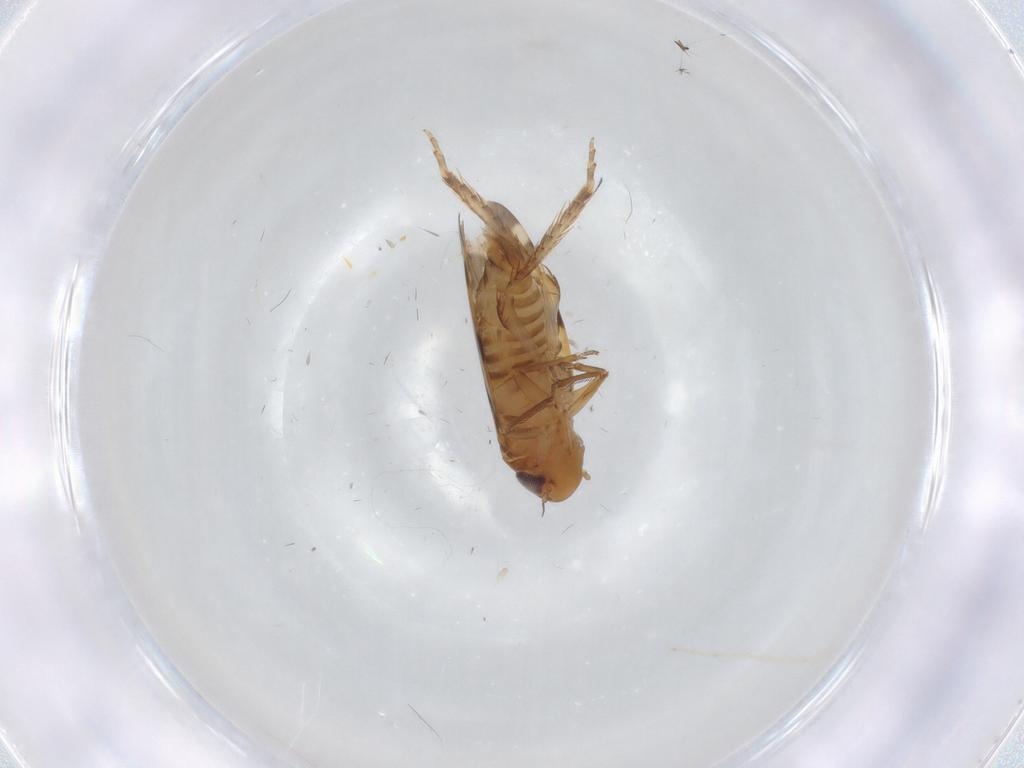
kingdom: Animalia
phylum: Arthropoda
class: Insecta
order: Hemiptera
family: Cicadellidae
